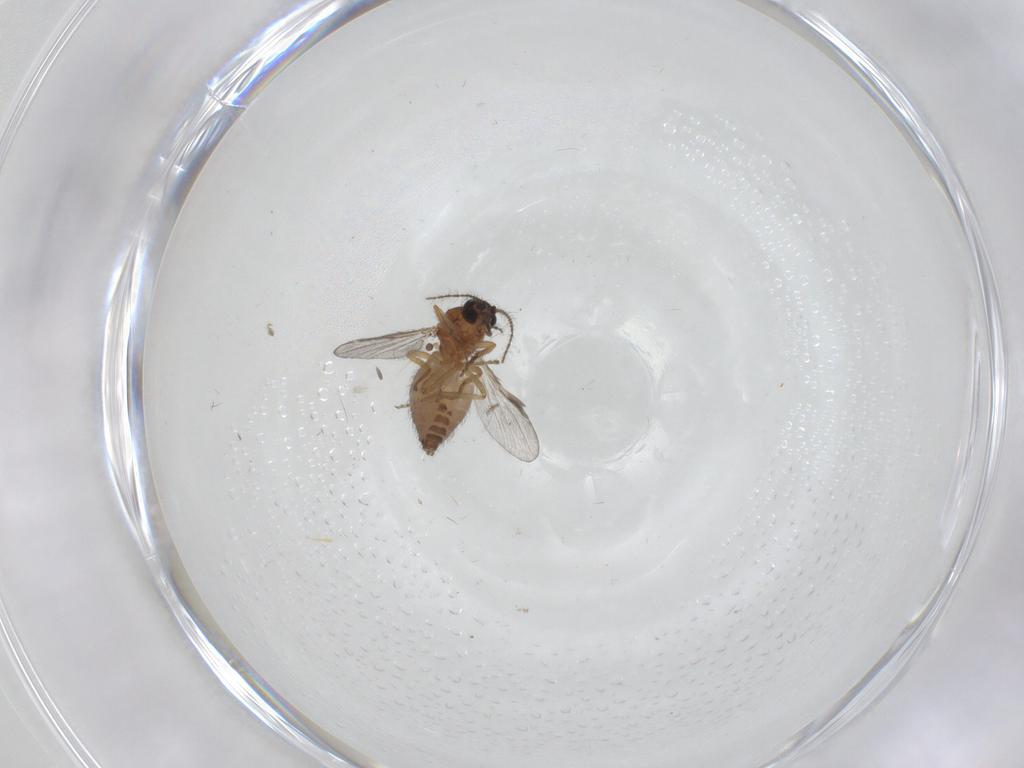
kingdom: Animalia
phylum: Arthropoda
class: Insecta
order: Diptera
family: Ceratopogonidae
